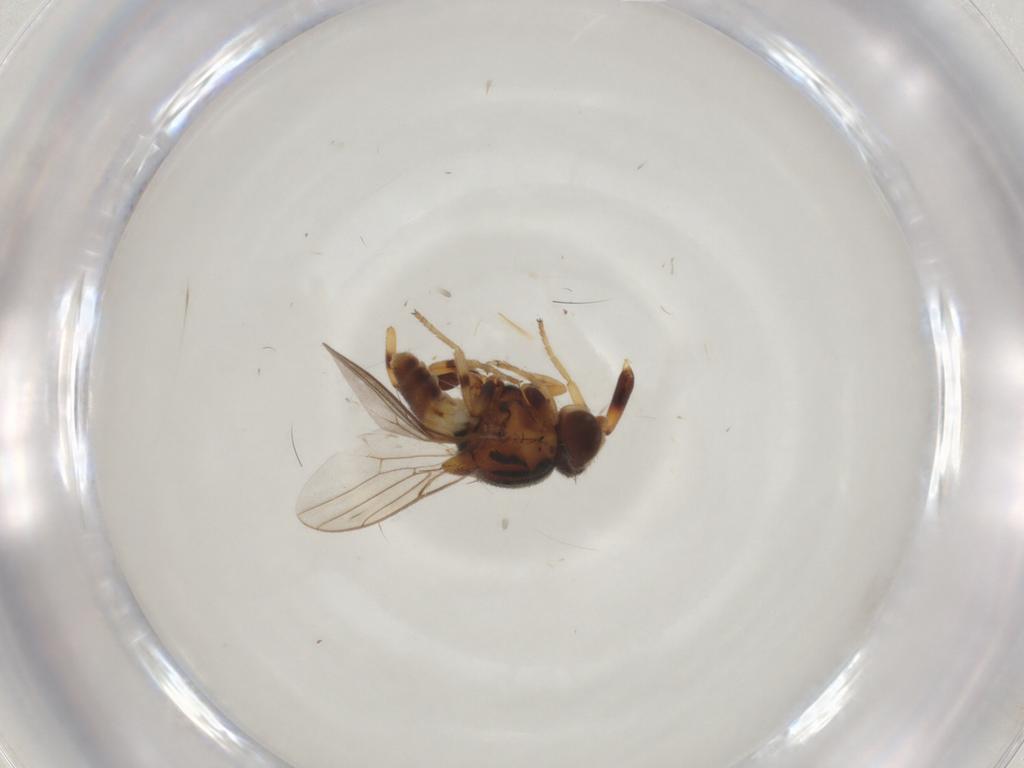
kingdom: Animalia
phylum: Arthropoda
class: Insecta
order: Diptera
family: Chloropidae
